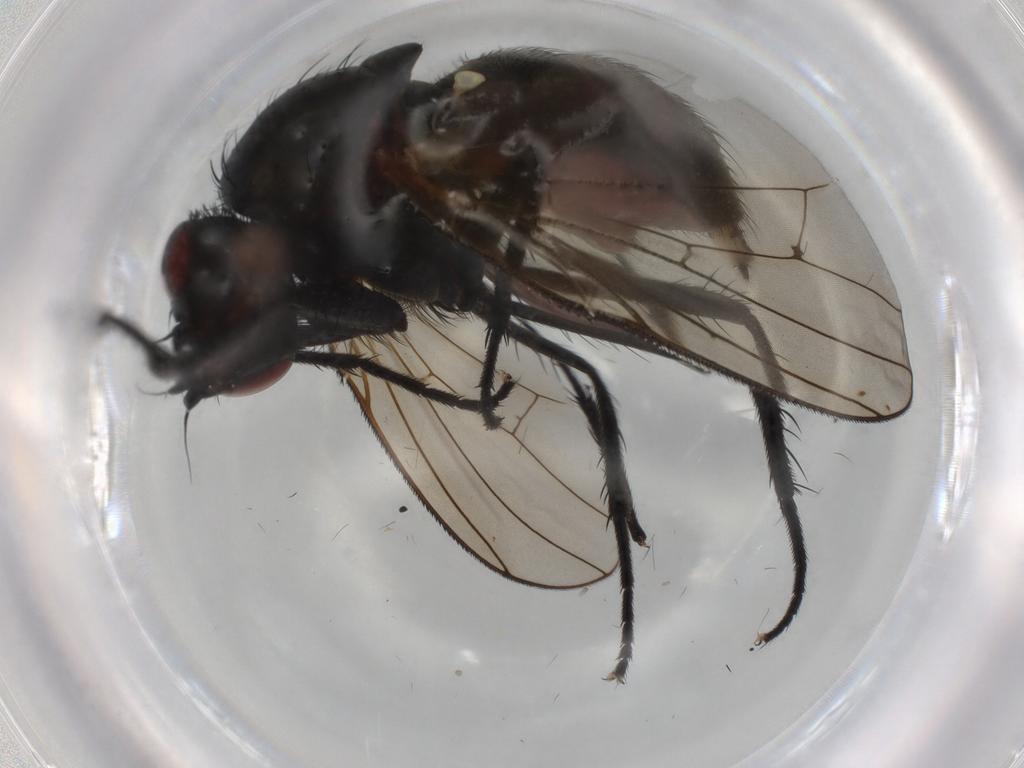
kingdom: Animalia
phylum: Arthropoda
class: Insecta
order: Diptera
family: Anthomyiidae
